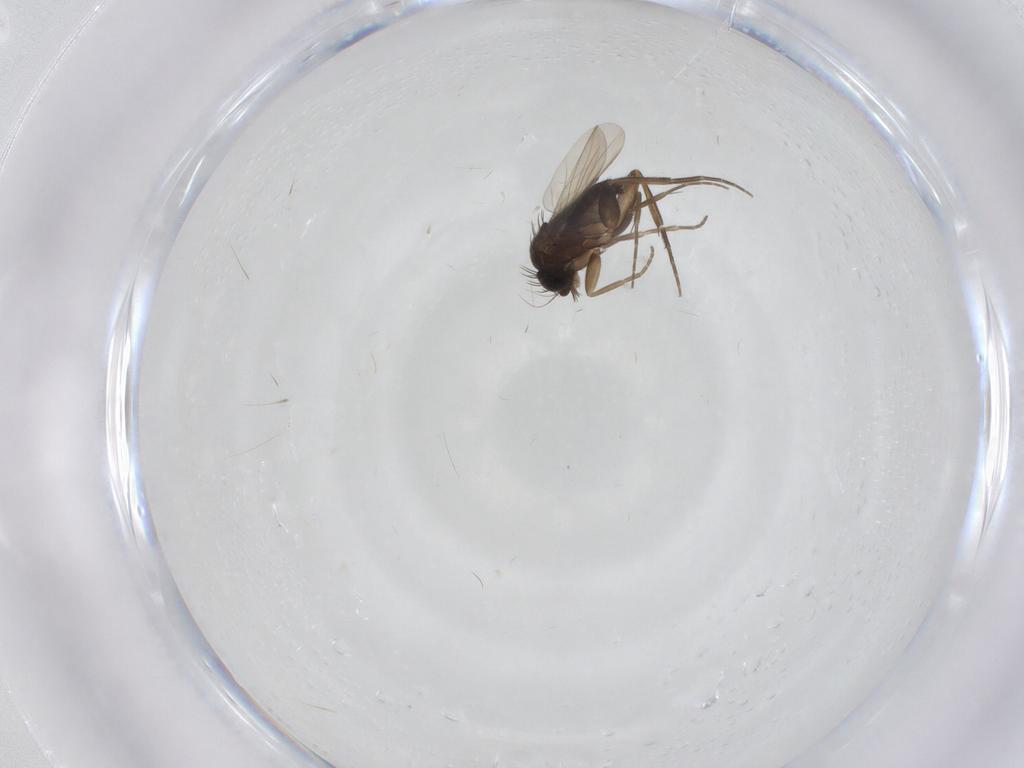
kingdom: Animalia
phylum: Arthropoda
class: Insecta
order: Diptera
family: Phoridae
